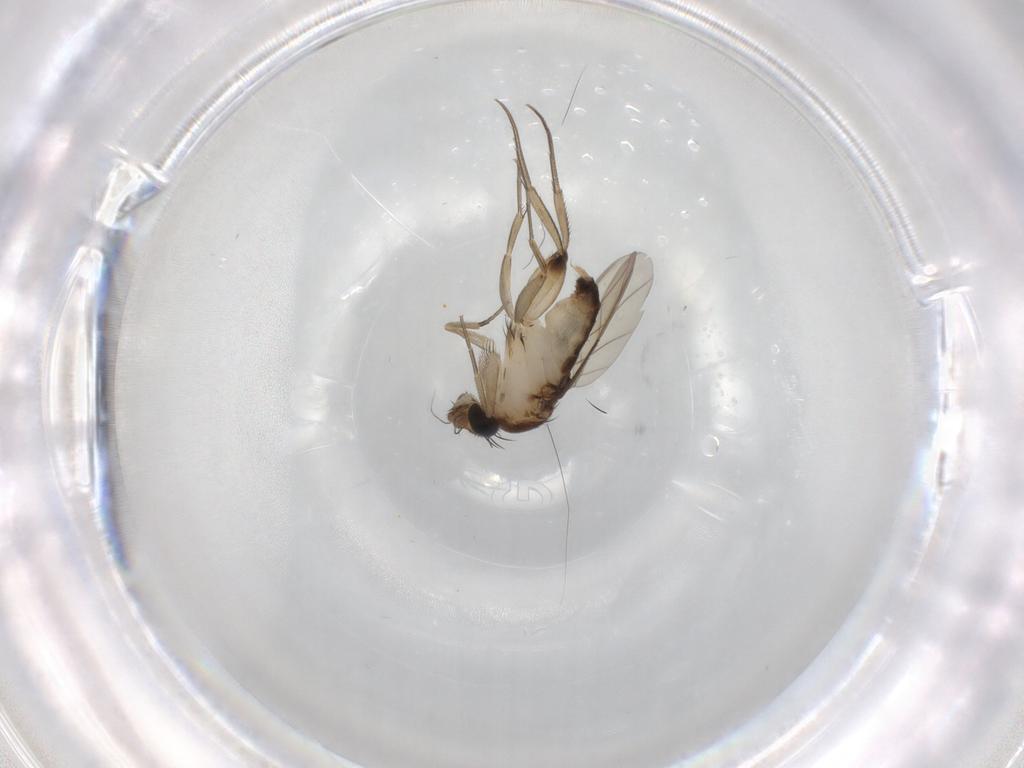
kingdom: Animalia
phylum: Arthropoda
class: Insecta
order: Diptera
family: Phoridae
